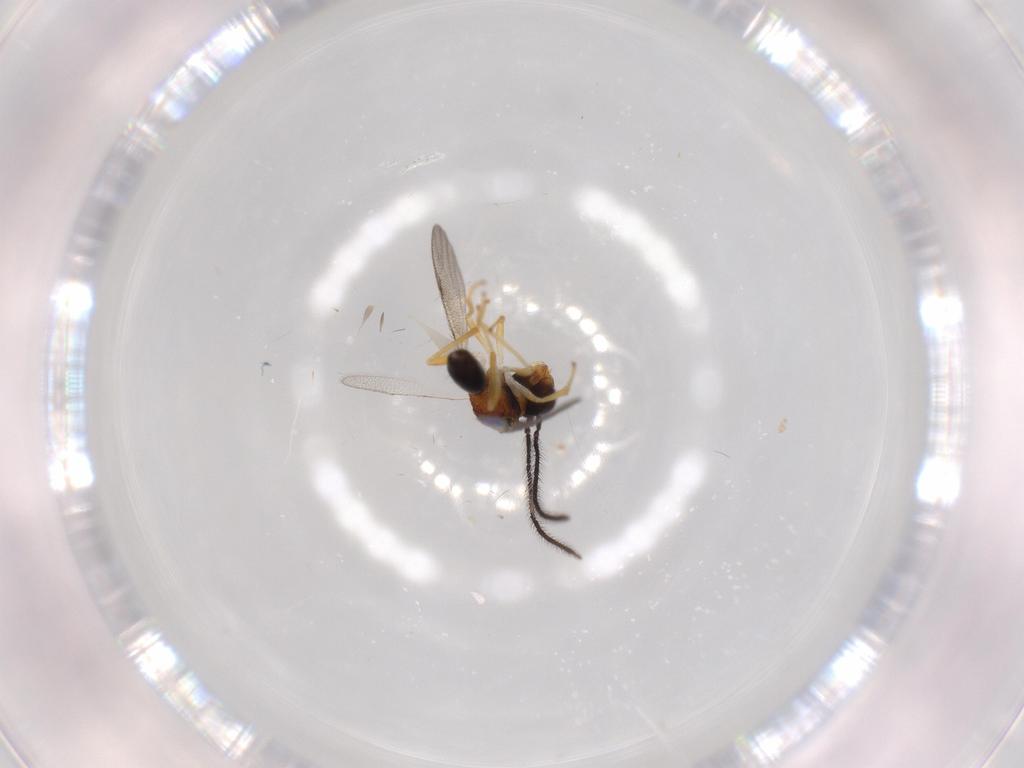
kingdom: Animalia
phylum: Arthropoda
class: Insecta
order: Hymenoptera
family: Diparidae
